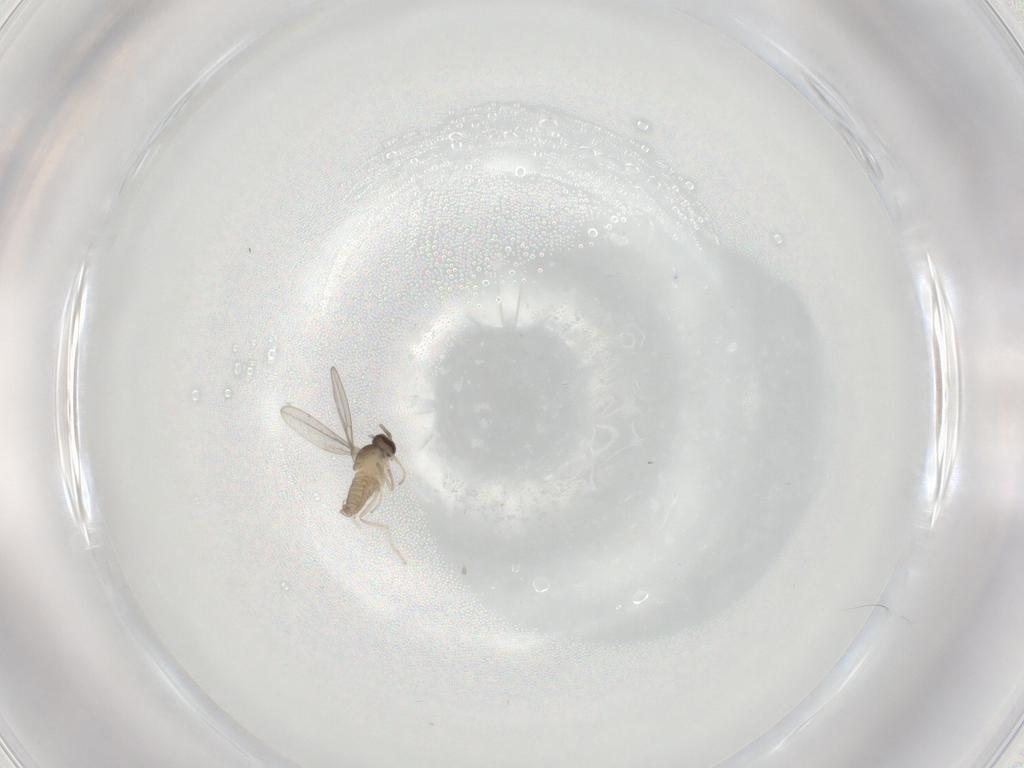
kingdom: Animalia
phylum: Arthropoda
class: Insecta
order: Diptera
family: Cecidomyiidae
